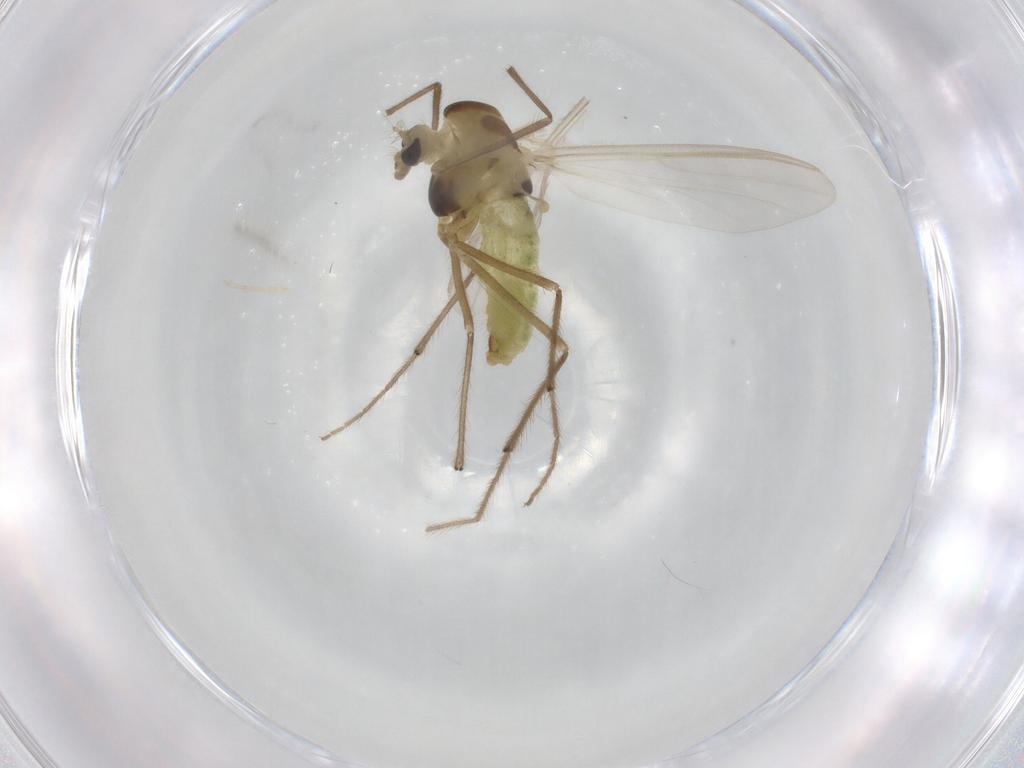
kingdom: Animalia
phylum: Arthropoda
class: Insecta
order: Diptera
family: Chironomidae
